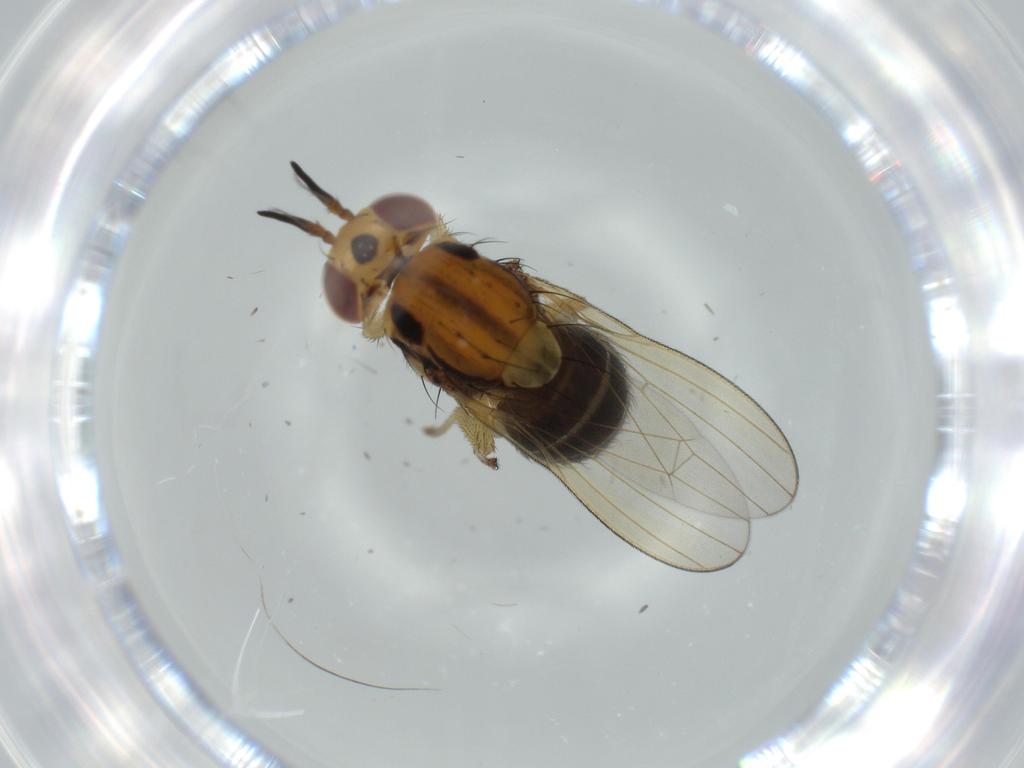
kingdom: Animalia
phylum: Arthropoda
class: Insecta
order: Diptera
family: Lauxaniidae
